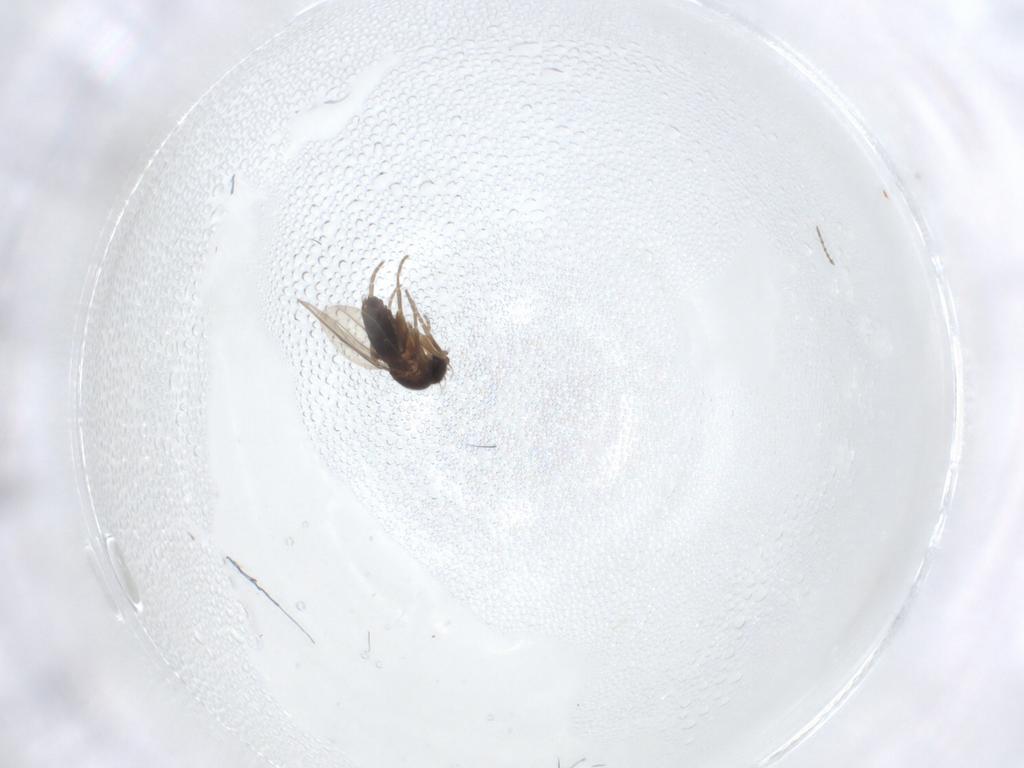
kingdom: Animalia
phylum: Arthropoda
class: Insecta
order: Diptera
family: Phoridae
